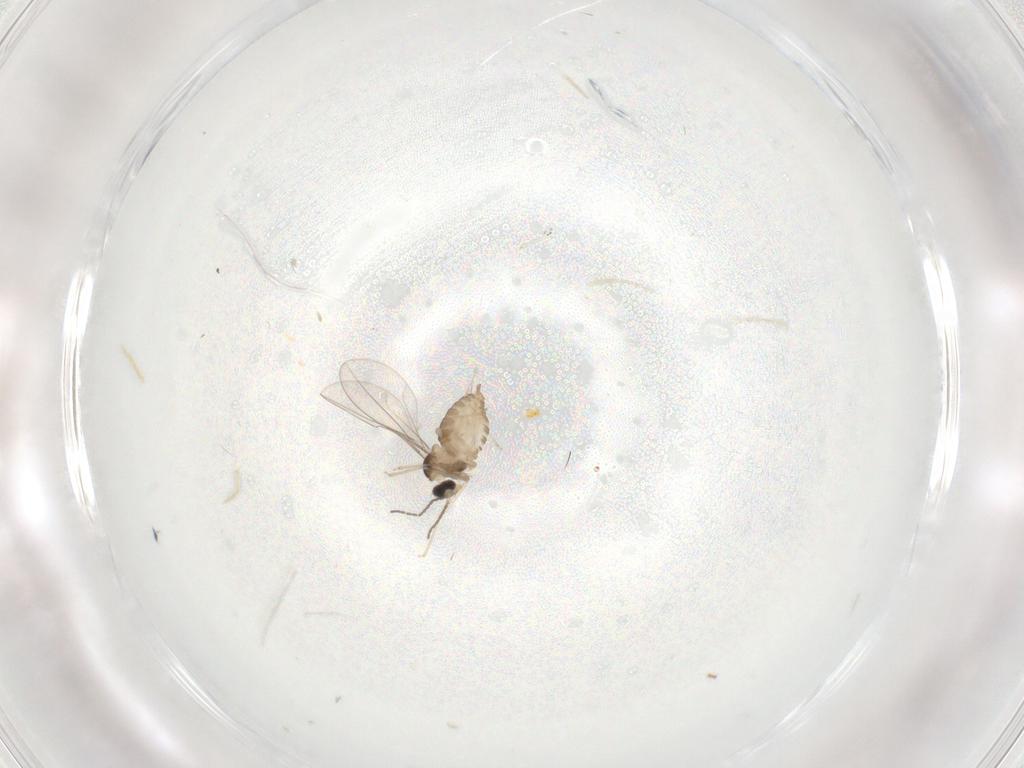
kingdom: Animalia
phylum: Arthropoda
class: Insecta
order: Diptera
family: Cecidomyiidae
